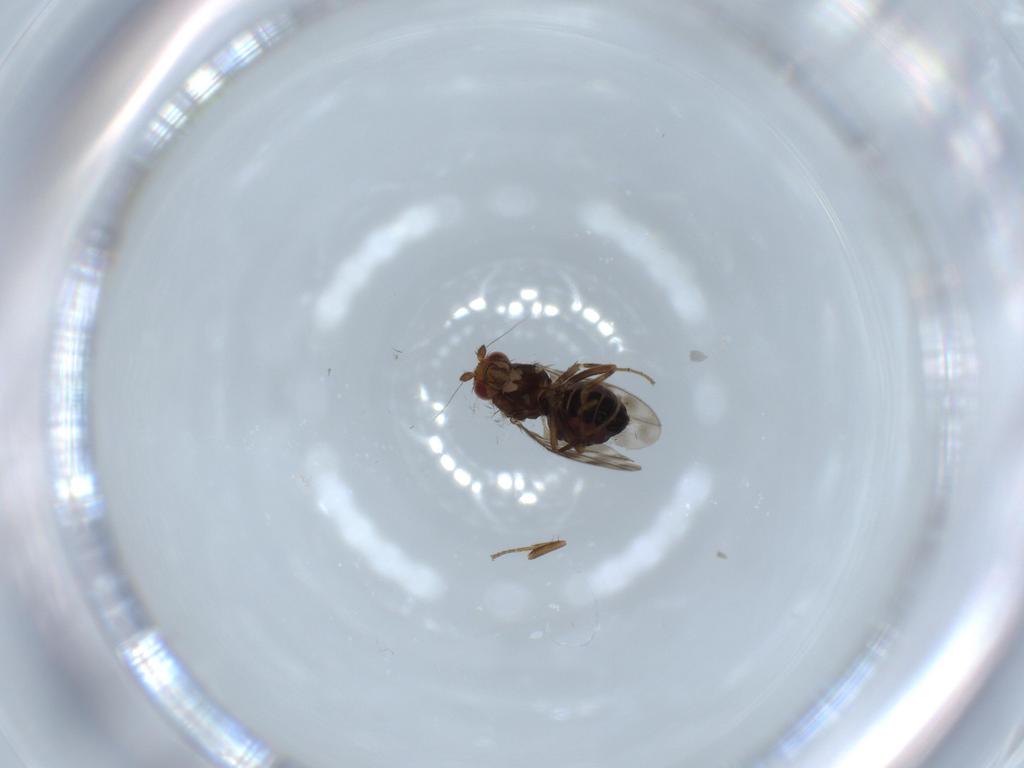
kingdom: Animalia
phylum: Arthropoda
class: Insecta
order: Diptera
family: Sphaeroceridae
